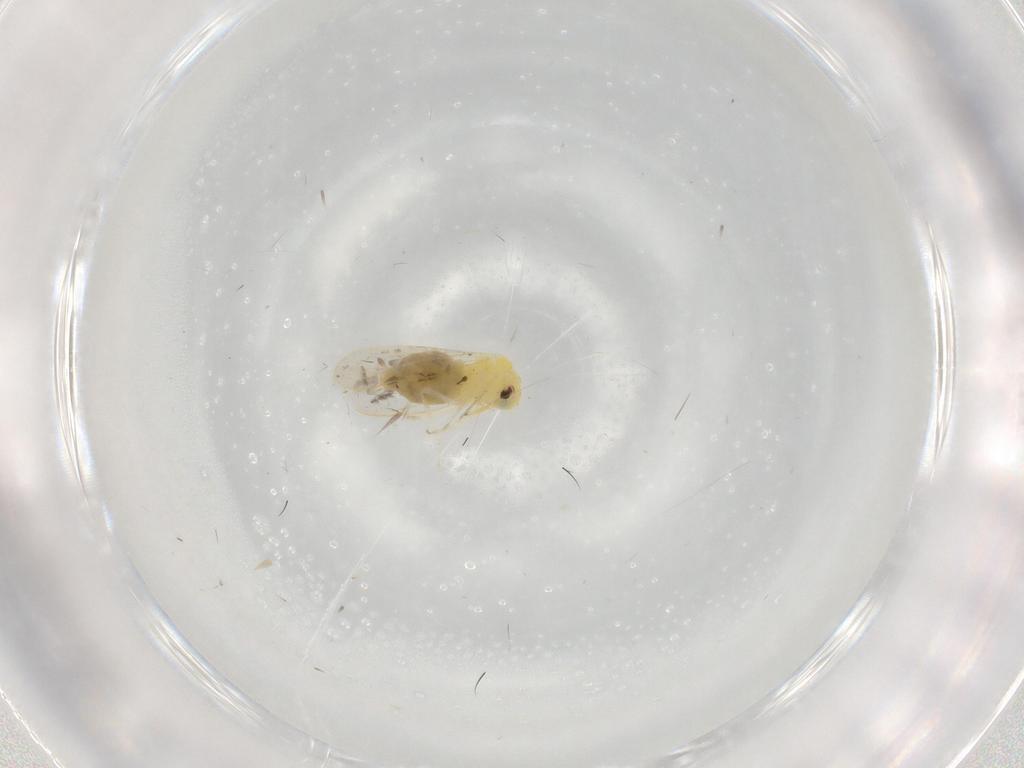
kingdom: Animalia
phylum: Arthropoda
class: Insecta
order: Hemiptera
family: Aleyrodidae
